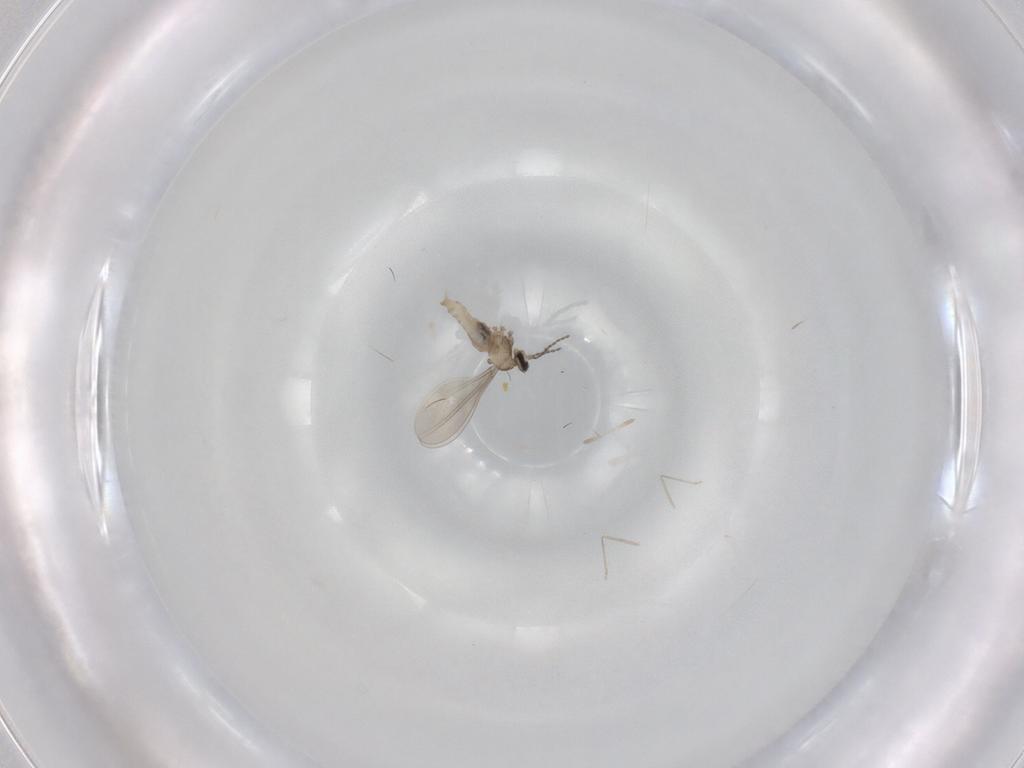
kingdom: Animalia
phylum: Arthropoda
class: Insecta
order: Diptera
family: Cecidomyiidae
